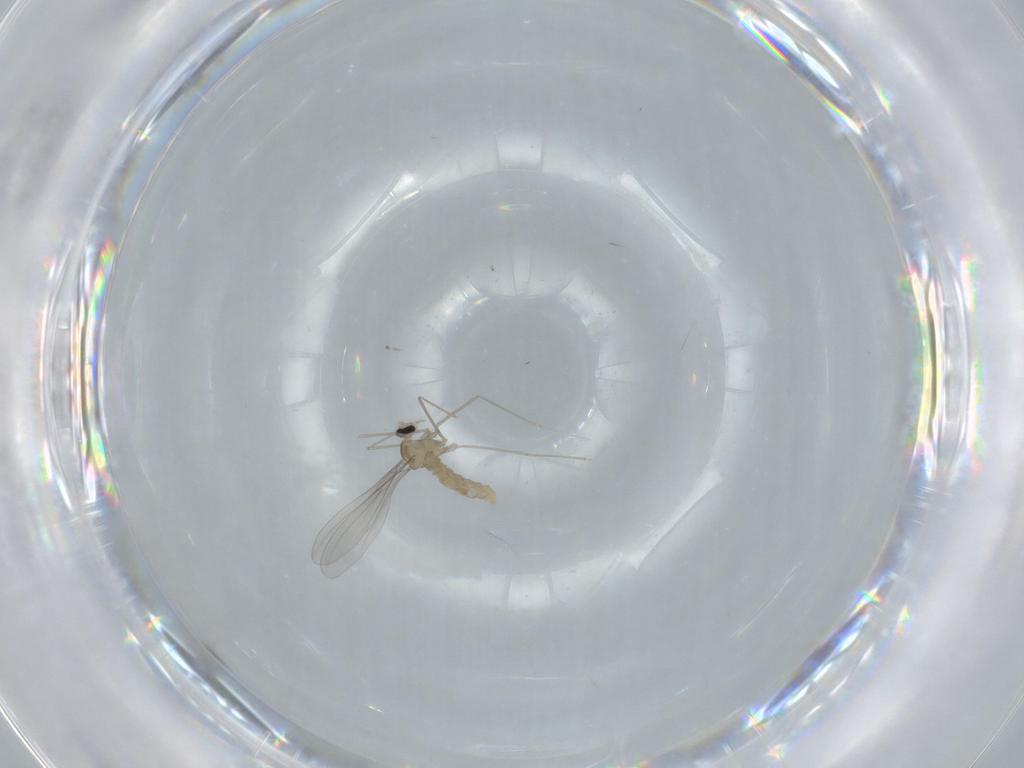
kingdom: Animalia
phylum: Arthropoda
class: Insecta
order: Diptera
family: Cecidomyiidae
